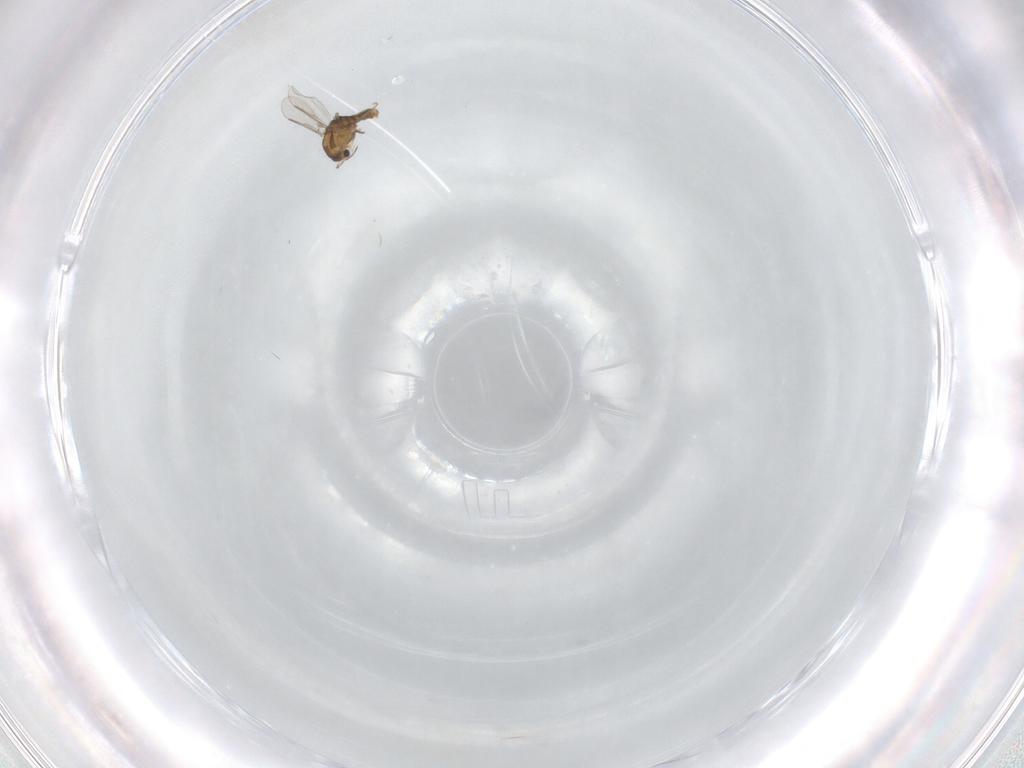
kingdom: Animalia
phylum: Arthropoda
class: Insecta
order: Diptera
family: Chironomidae
